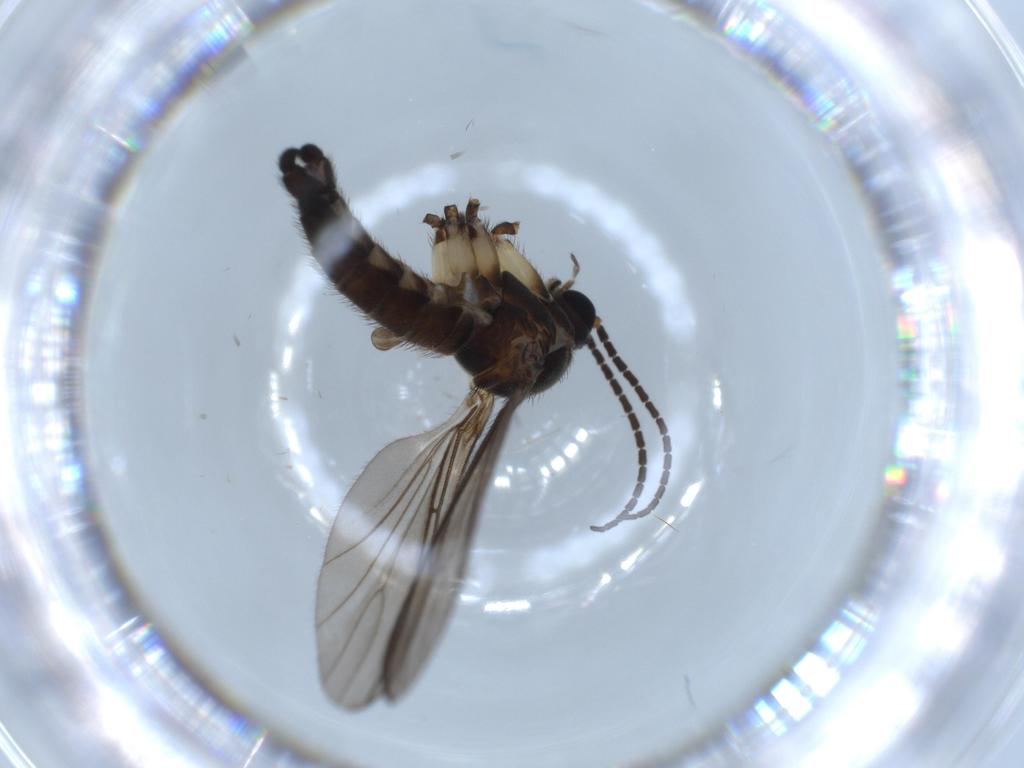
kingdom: Animalia
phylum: Arthropoda
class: Insecta
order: Diptera
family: Sciaridae
